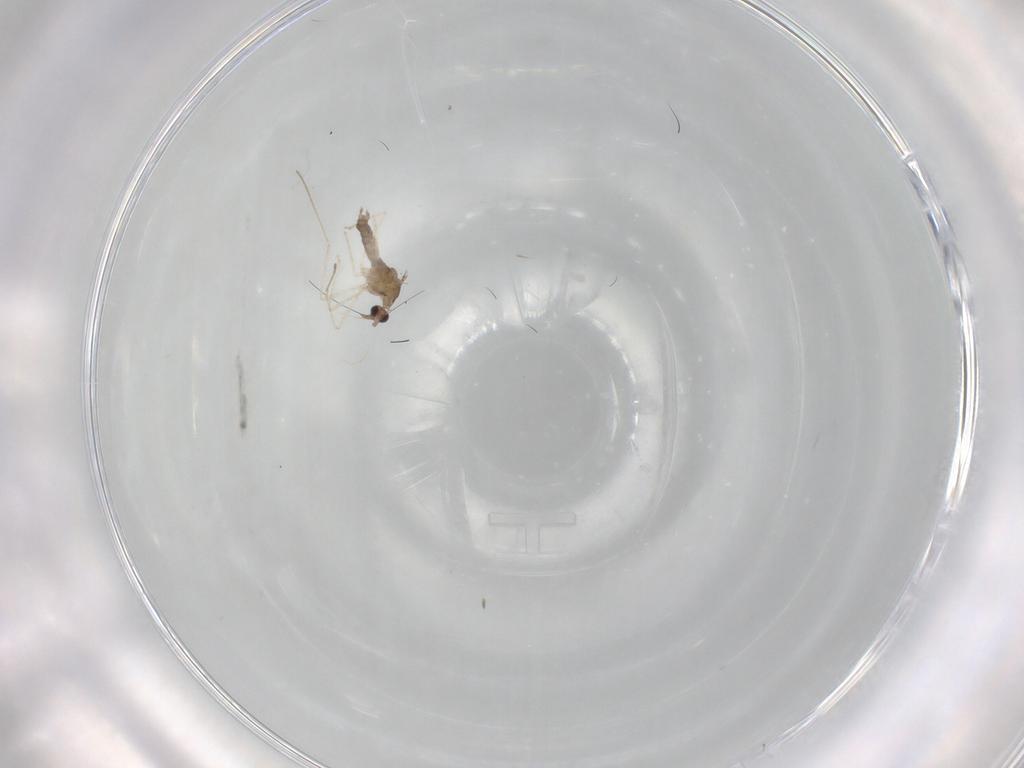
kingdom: Animalia
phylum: Arthropoda
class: Insecta
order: Diptera
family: Cecidomyiidae
